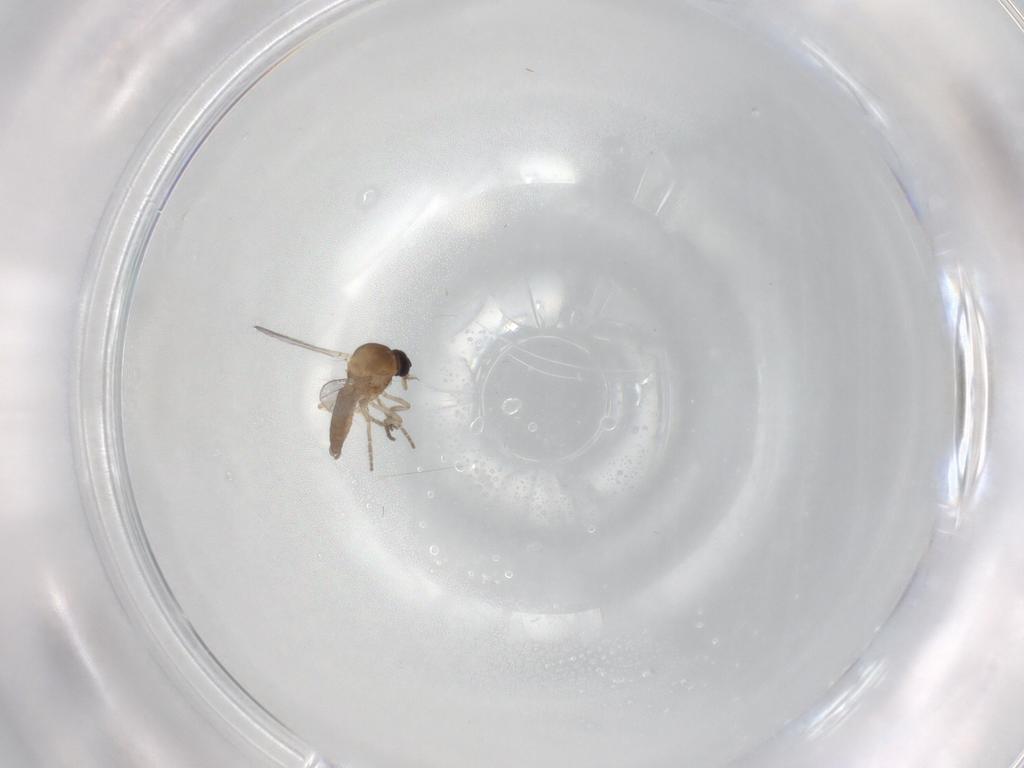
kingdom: Animalia
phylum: Arthropoda
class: Insecta
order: Diptera
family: Ceratopogonidae
